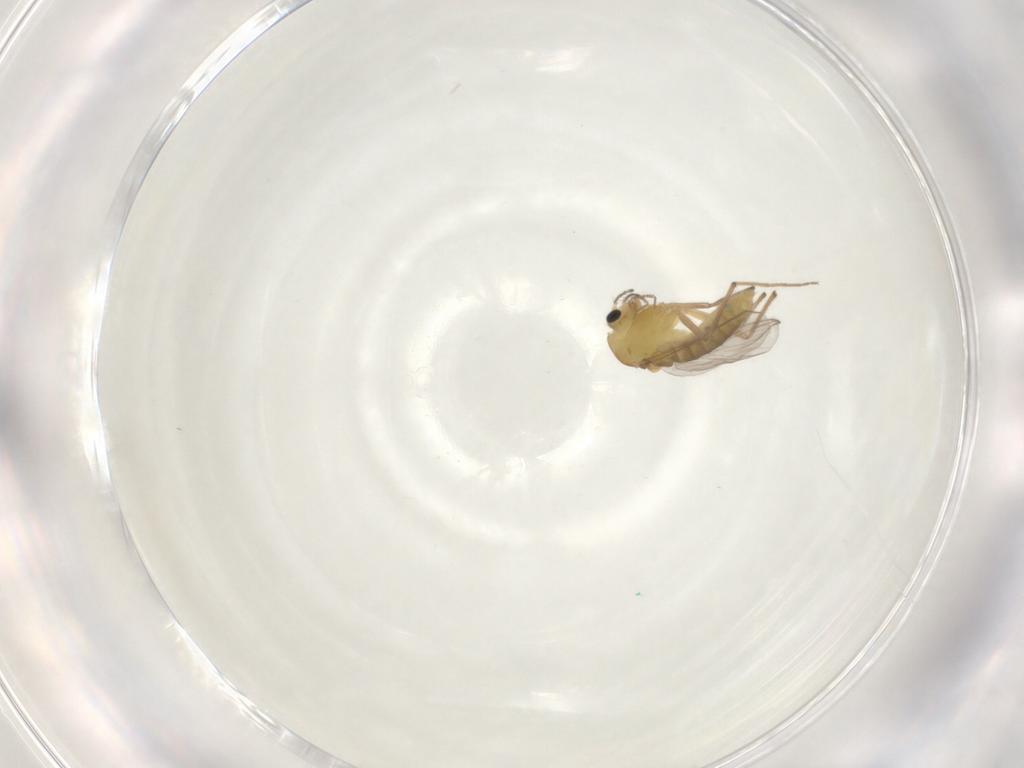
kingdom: Animalia
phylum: Arthropoda
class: Insecta
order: Diptera
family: Chironomidae
